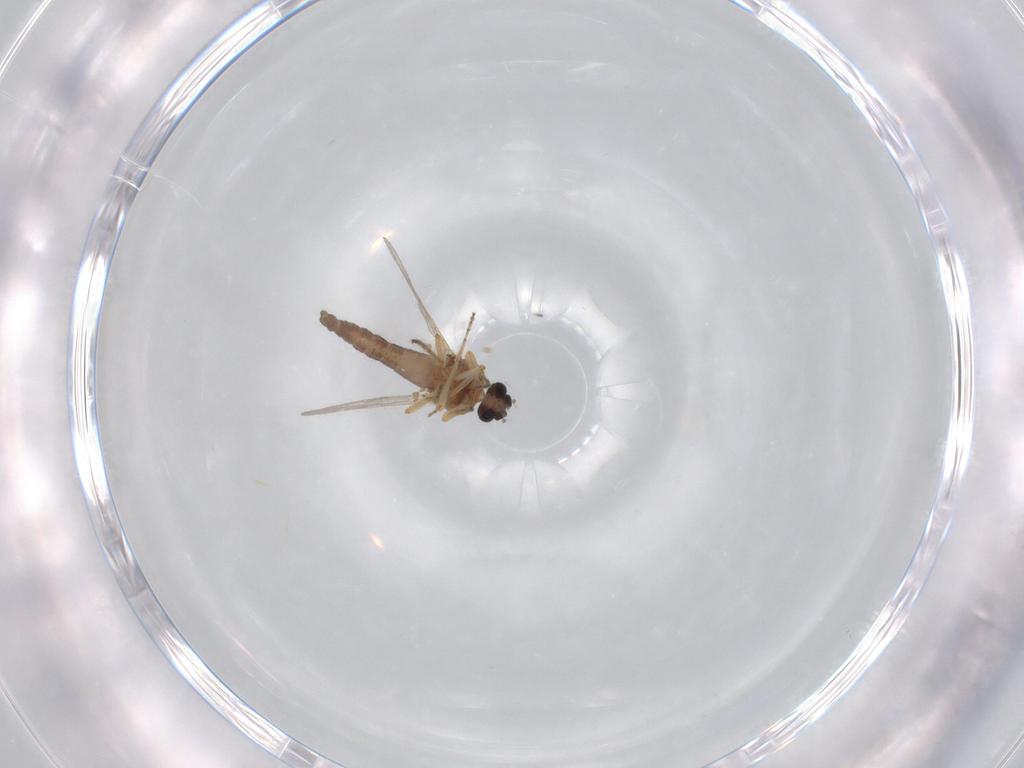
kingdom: Animalia
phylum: Arthropoda
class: Insecta
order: Diptera
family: Ceratopogonidae
